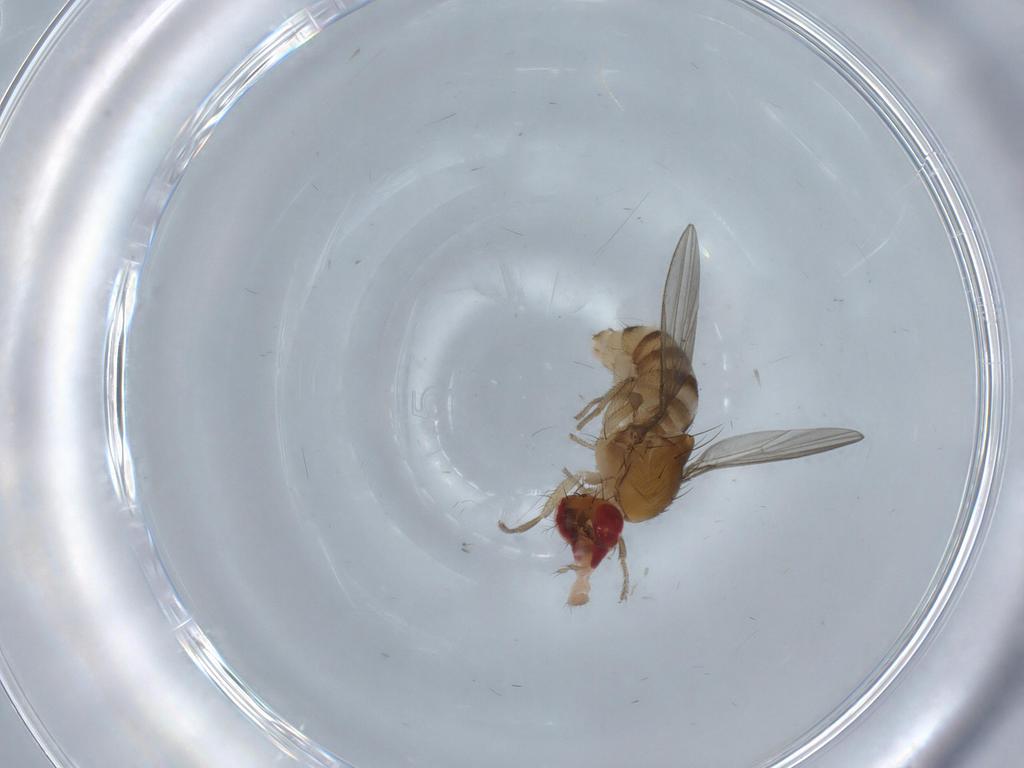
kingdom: Animalia
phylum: Arthropoda
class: Insecta
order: Diptera
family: Drosophilidae
